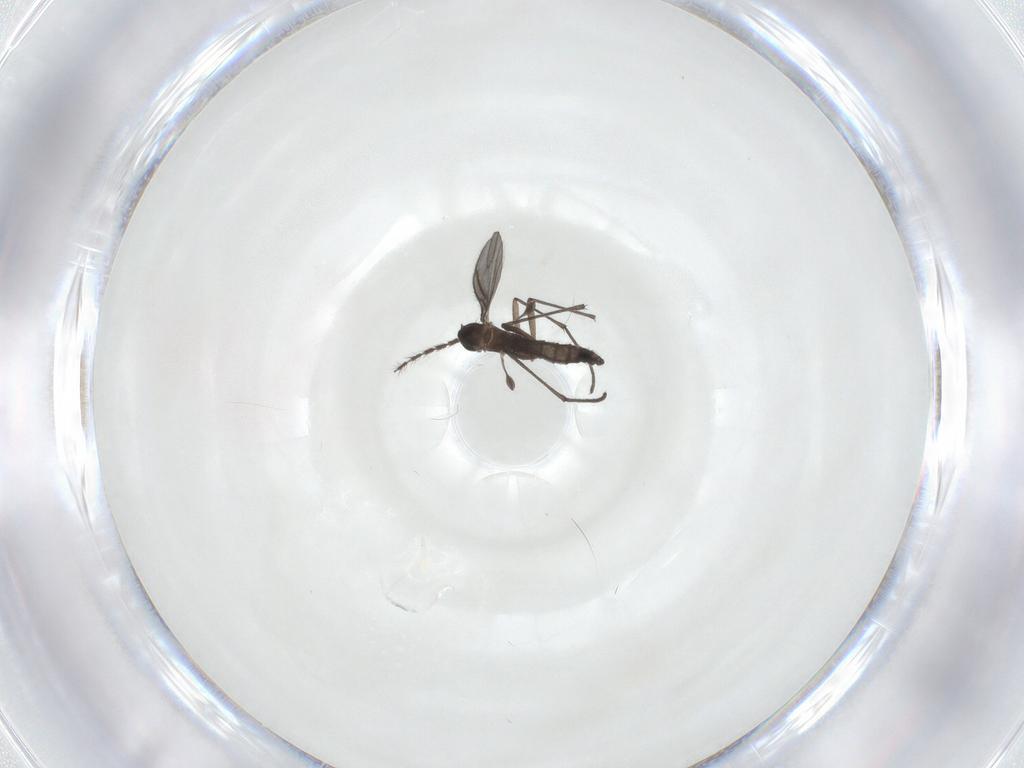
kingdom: Animalia
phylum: Arthropoda
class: Insecta
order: Diptera
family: Sciaridae
